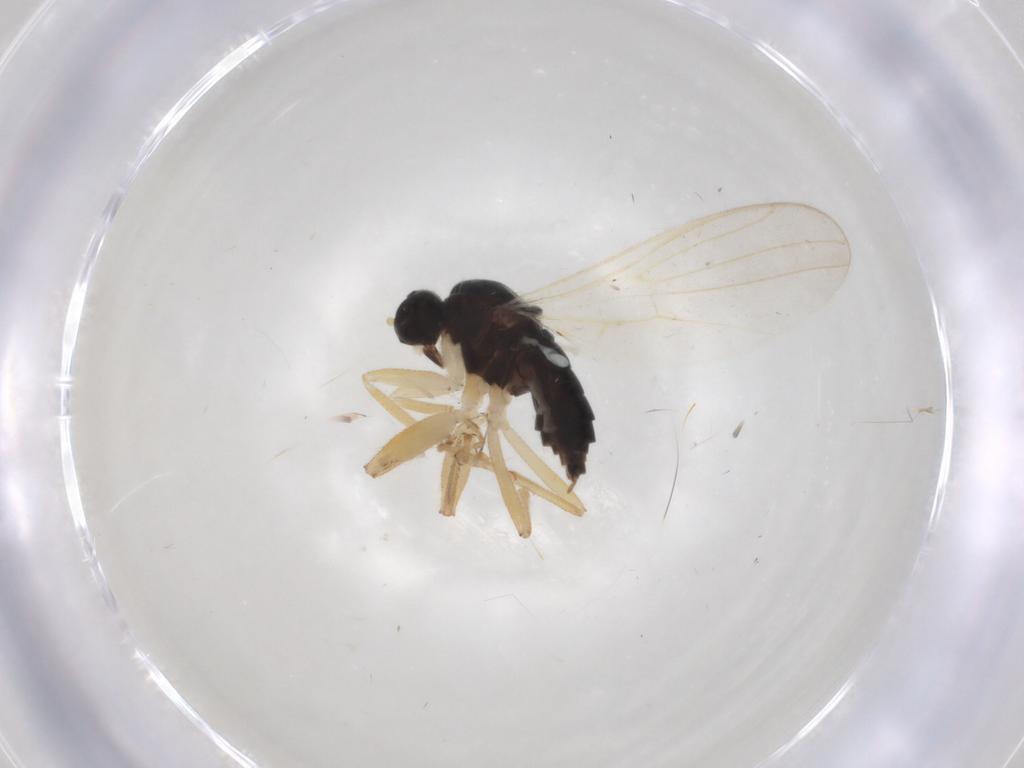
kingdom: Animalia
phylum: Arthropoda
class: Insecta
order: Diptera
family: Hybotidae
